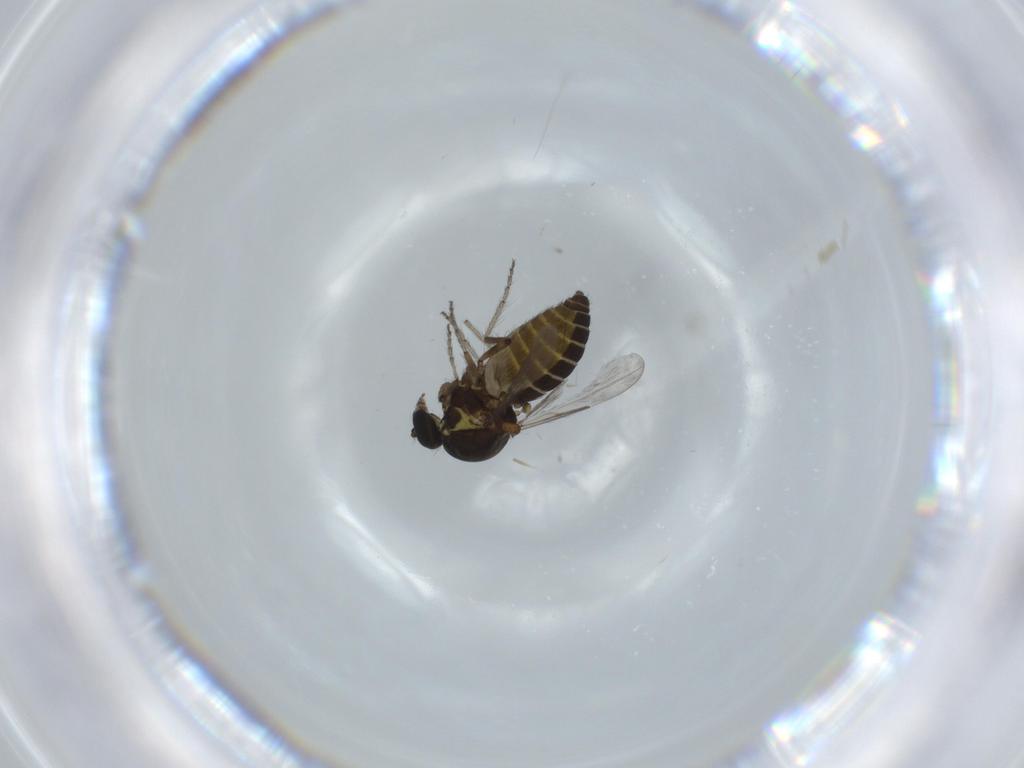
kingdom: Animalia
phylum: Arthropoda
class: Insecta
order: Diptera
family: Ceratopogonidae
